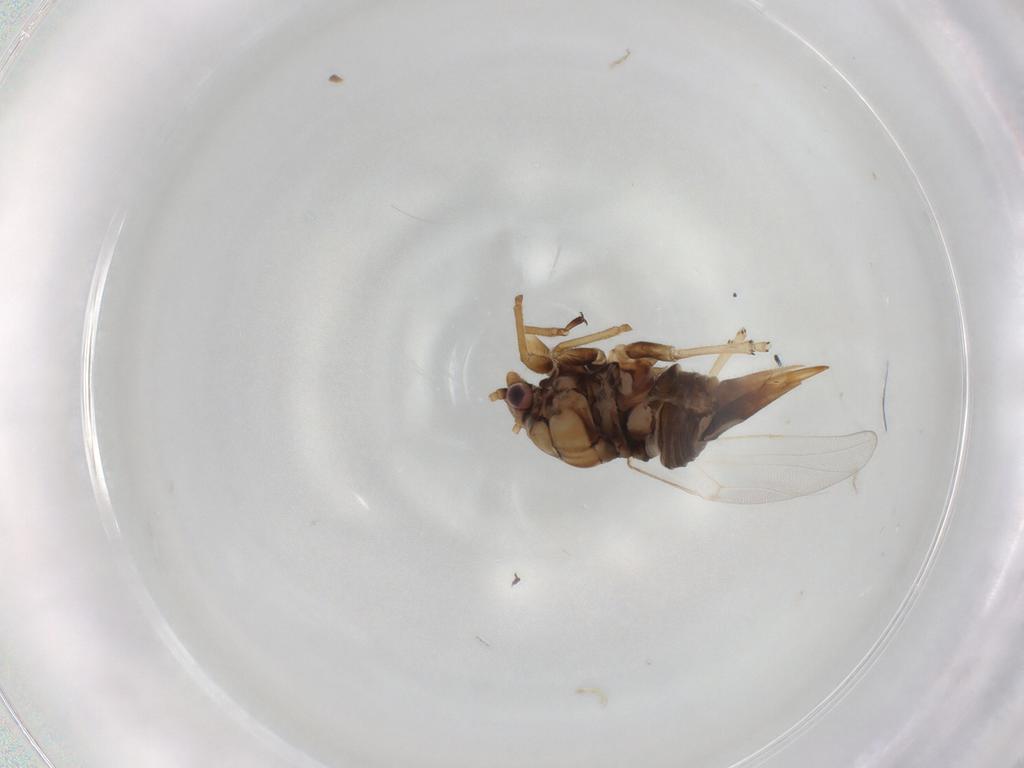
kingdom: Animalia
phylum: Arthropoda
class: Insecta
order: Hemiptera
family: Psyllidae
